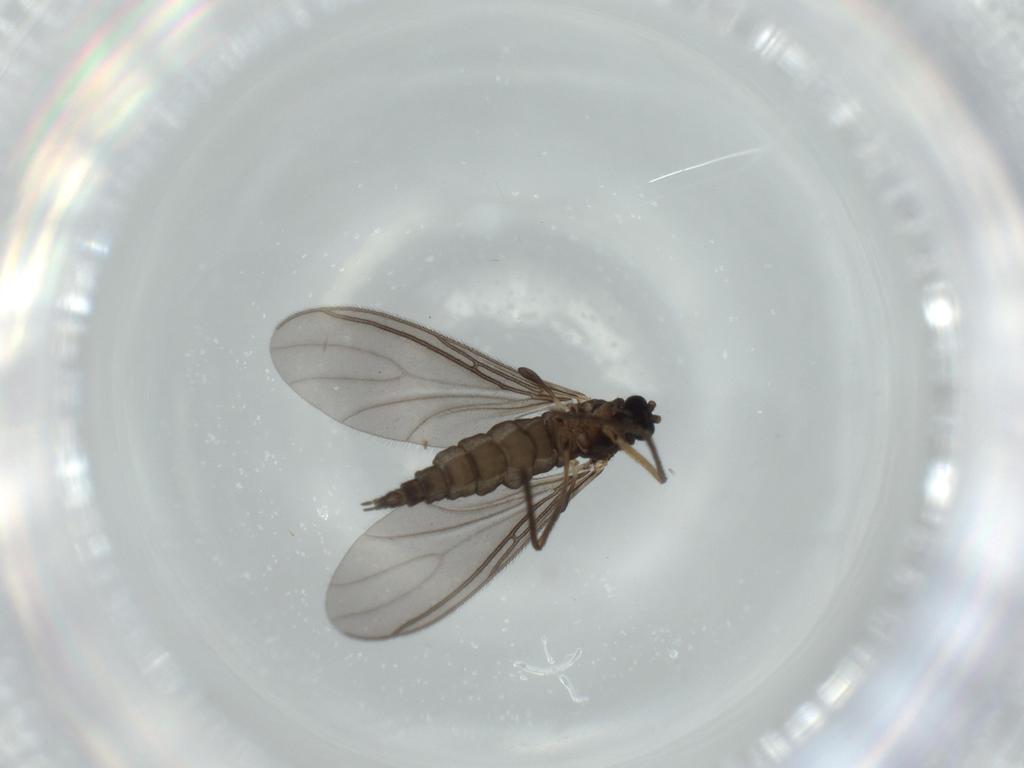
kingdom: Animalia
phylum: Arthropoda
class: Insecta
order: Diptera
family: Sciaridae
